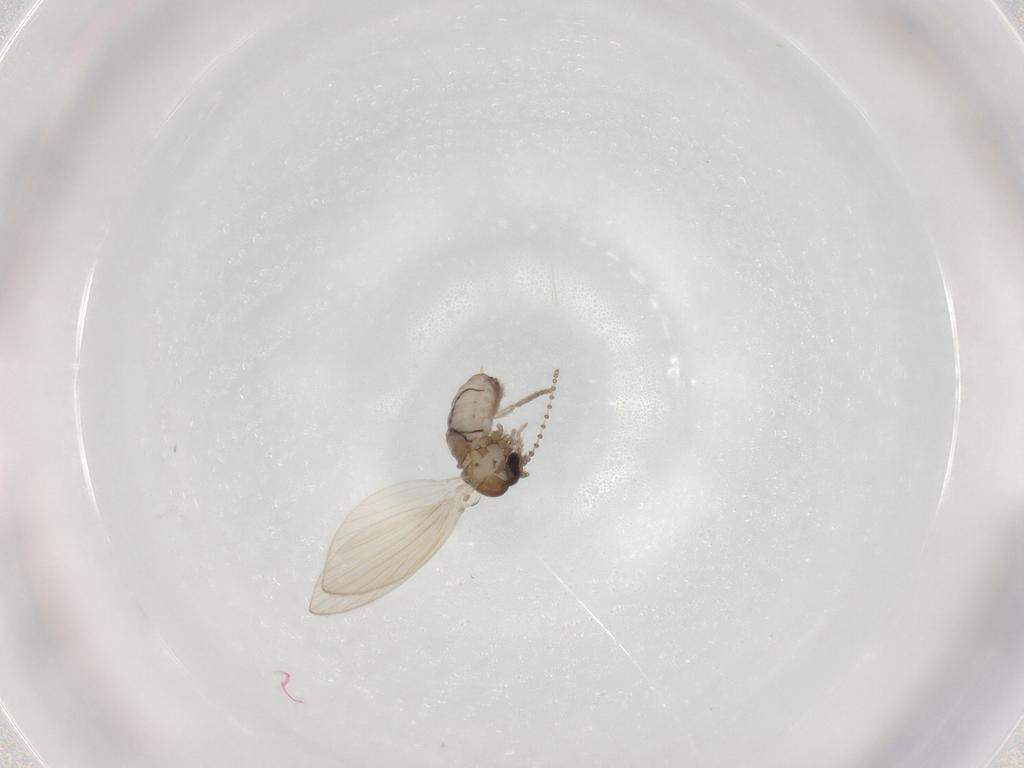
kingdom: Animalia
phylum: Arthropoda
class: Insecta
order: Diptera
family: Psychodidae
